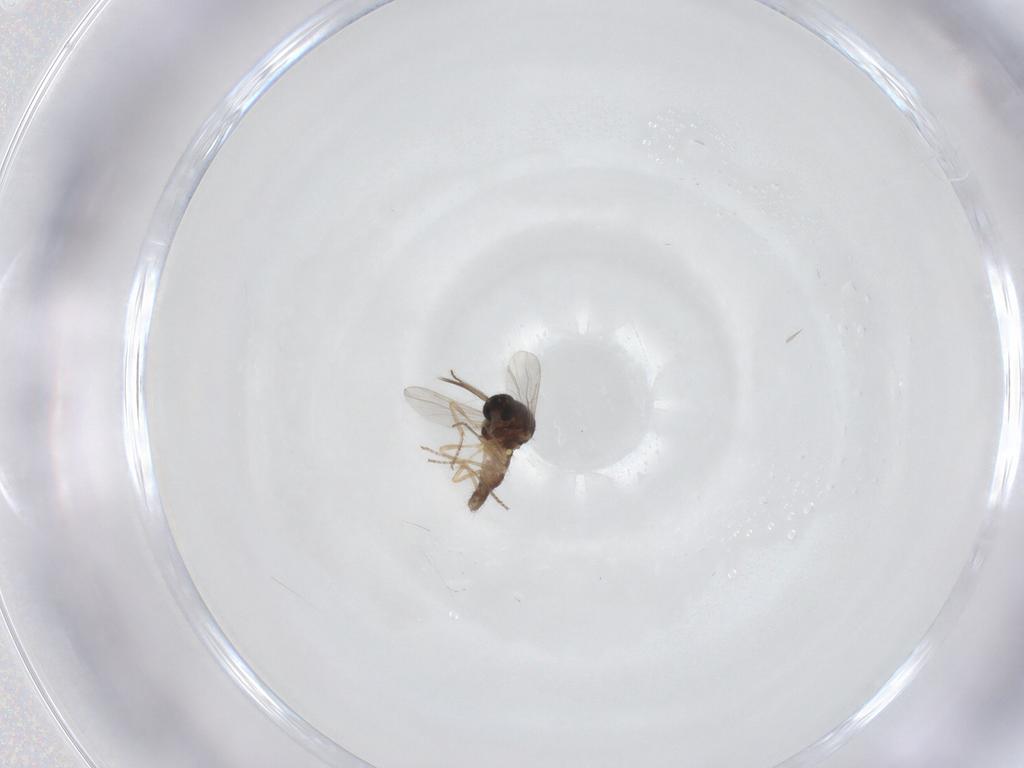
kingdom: Animalia
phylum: Arthropoda
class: Insecta
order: Diptera
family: Ceratopogonidae
